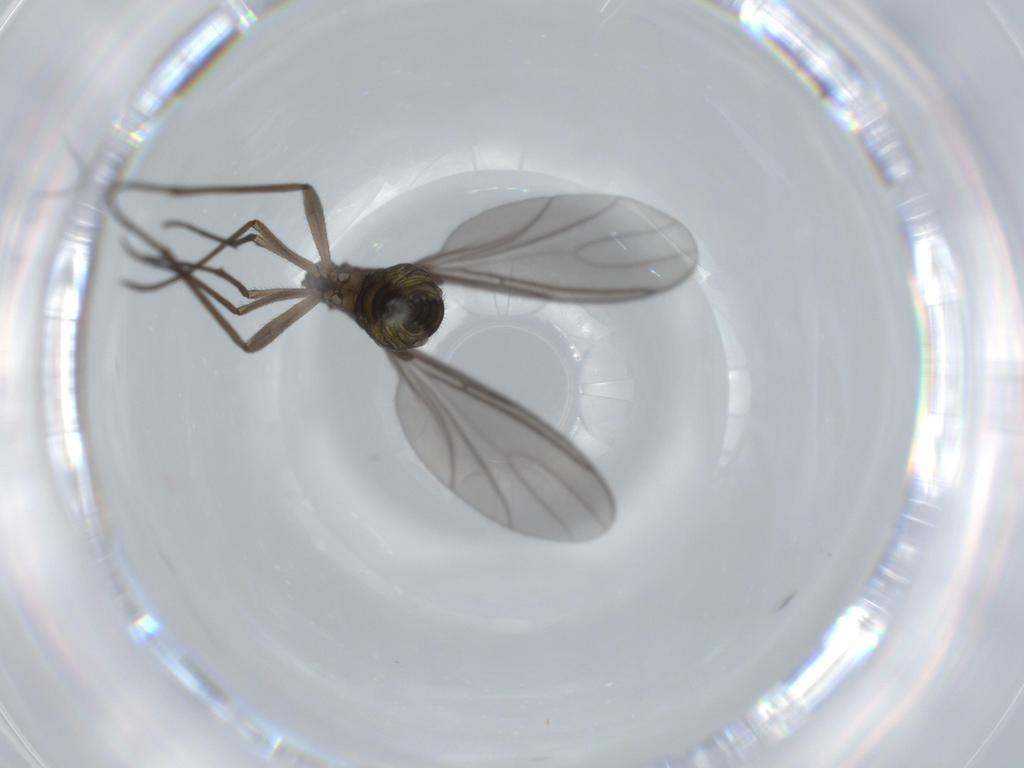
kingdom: Animalia
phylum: Arthropoda
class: Insecta
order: Diptera
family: Sciaridae
